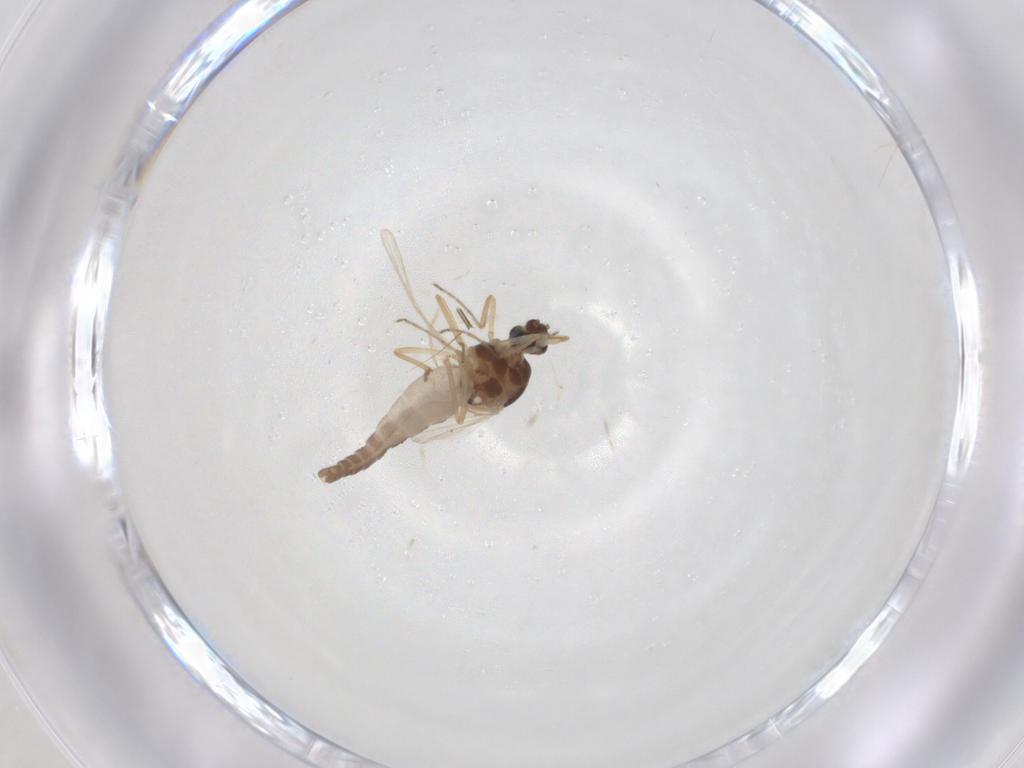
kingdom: Animalia
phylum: Arthropoda
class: Insecta
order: Diptera
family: Ceratopogonidae
